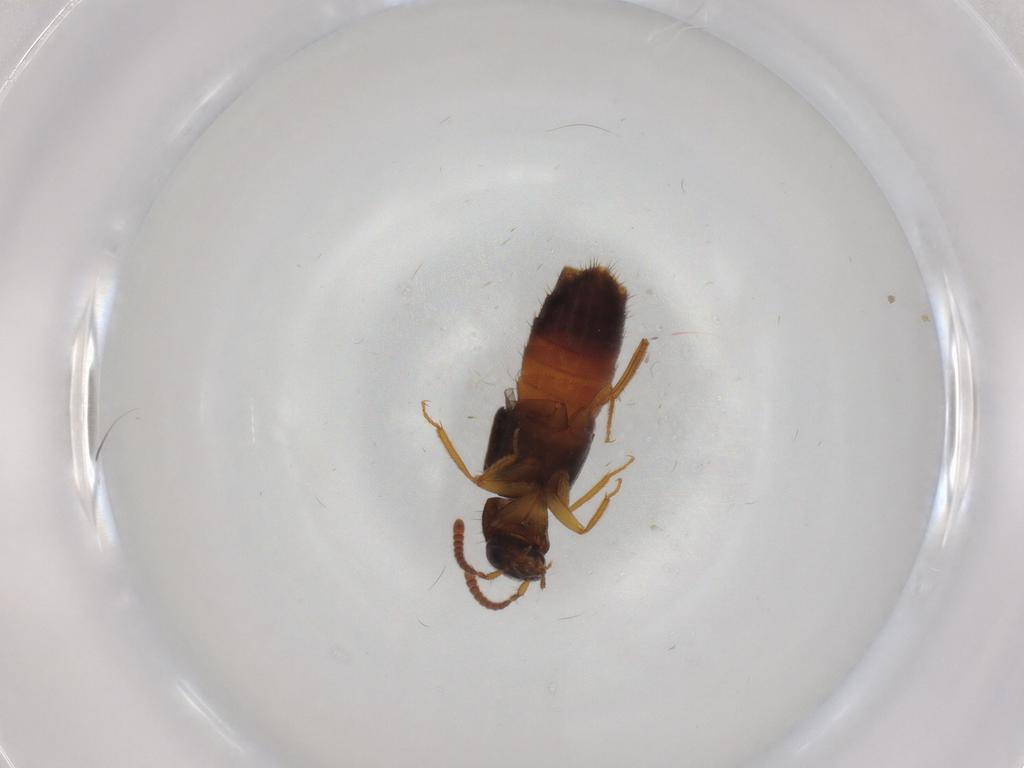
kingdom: Animalia
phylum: Arthropoda
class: Insecta
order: Coleoptera
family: Staphylinidae
